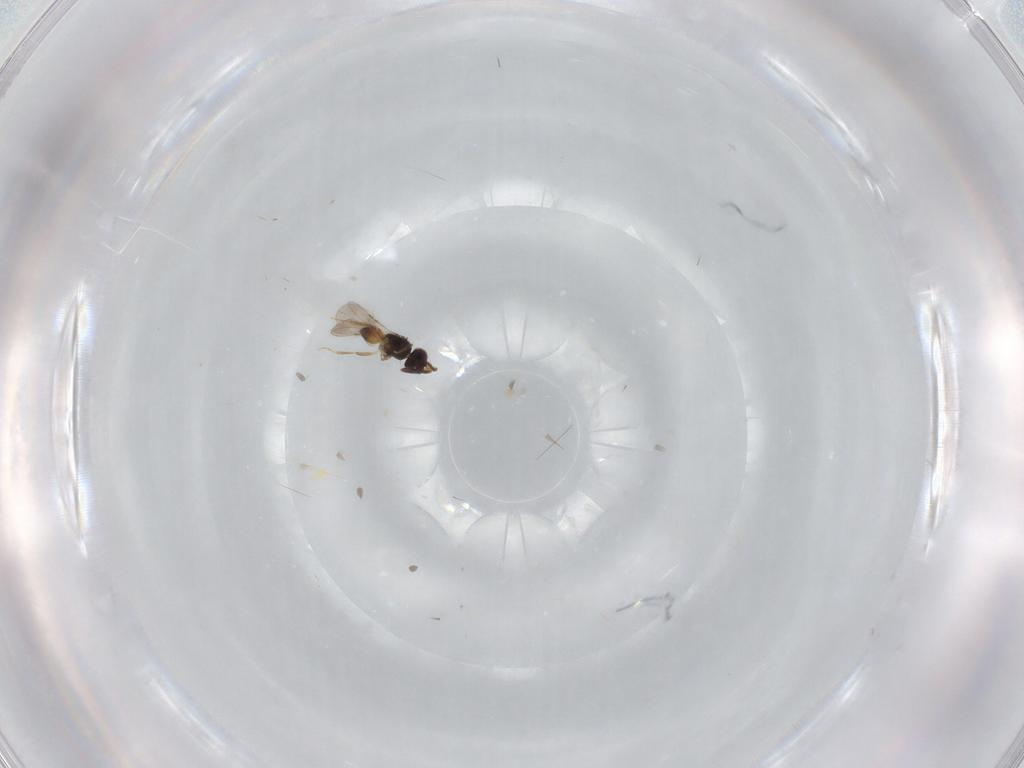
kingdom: Animalia
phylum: Arthropoda
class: Insecta
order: Hymenoptera
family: Ceraphronidae
